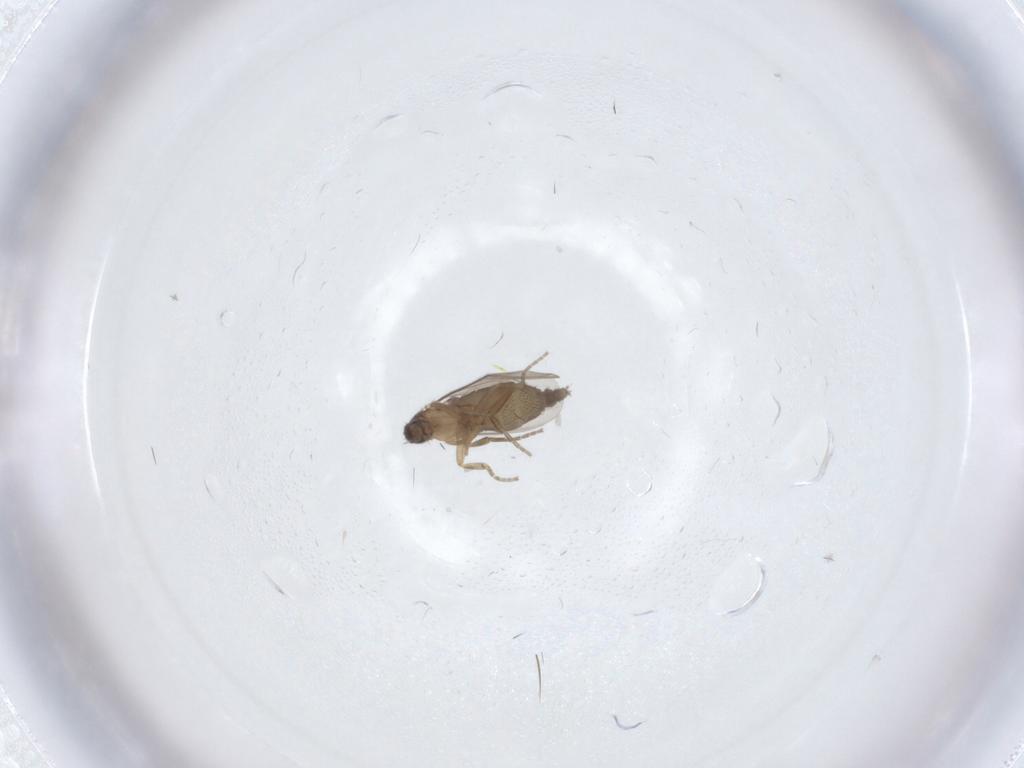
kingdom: Animalia
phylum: Arthropoda
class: Insecta
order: Diptera
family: Phoridae
